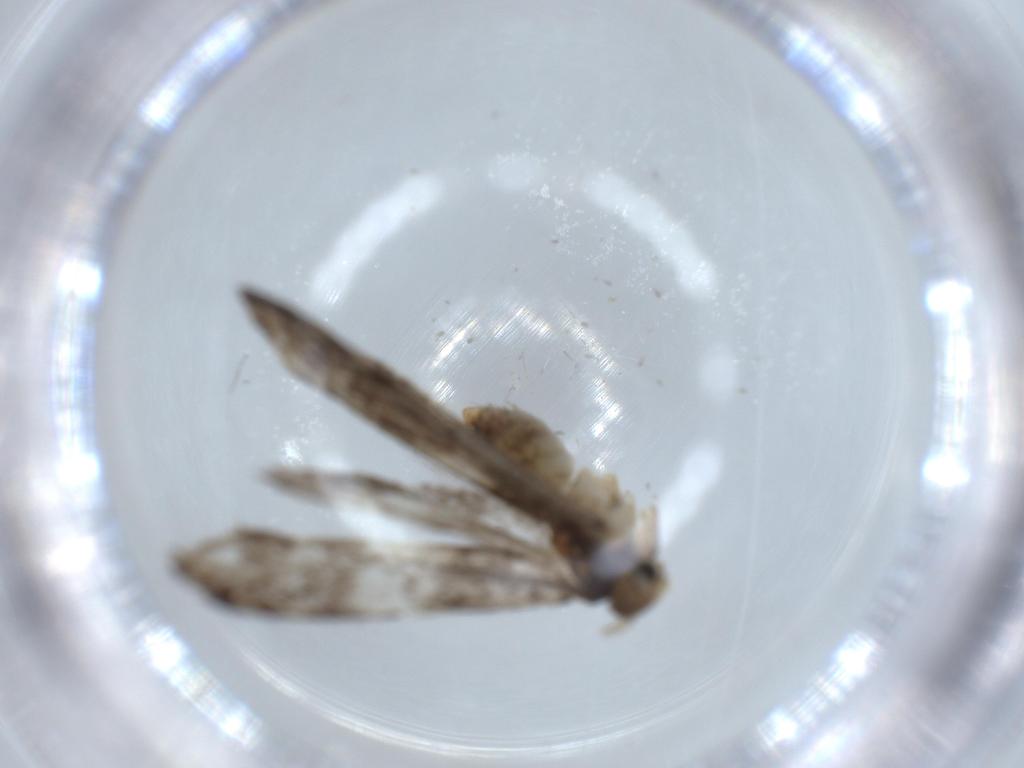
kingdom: Animalia
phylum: Arthropoda
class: Insecta
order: Lepidoptera
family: Tineidae
